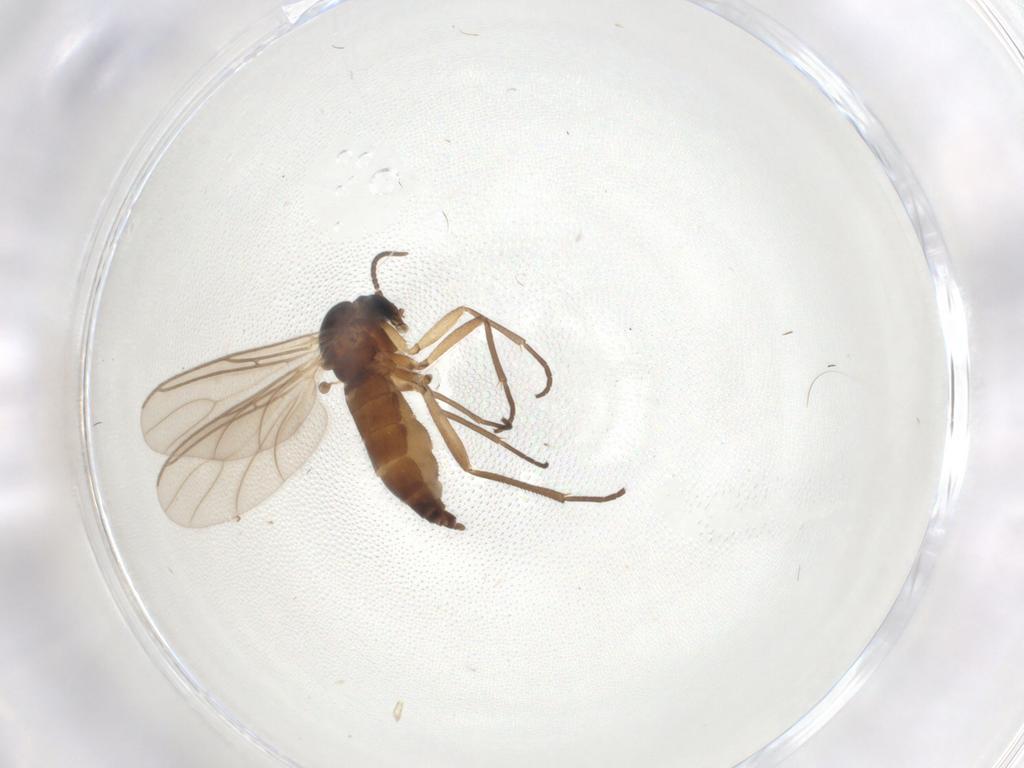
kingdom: Animalia
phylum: Arthropoda
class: Insecta
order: Diptera
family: Sciaridae
